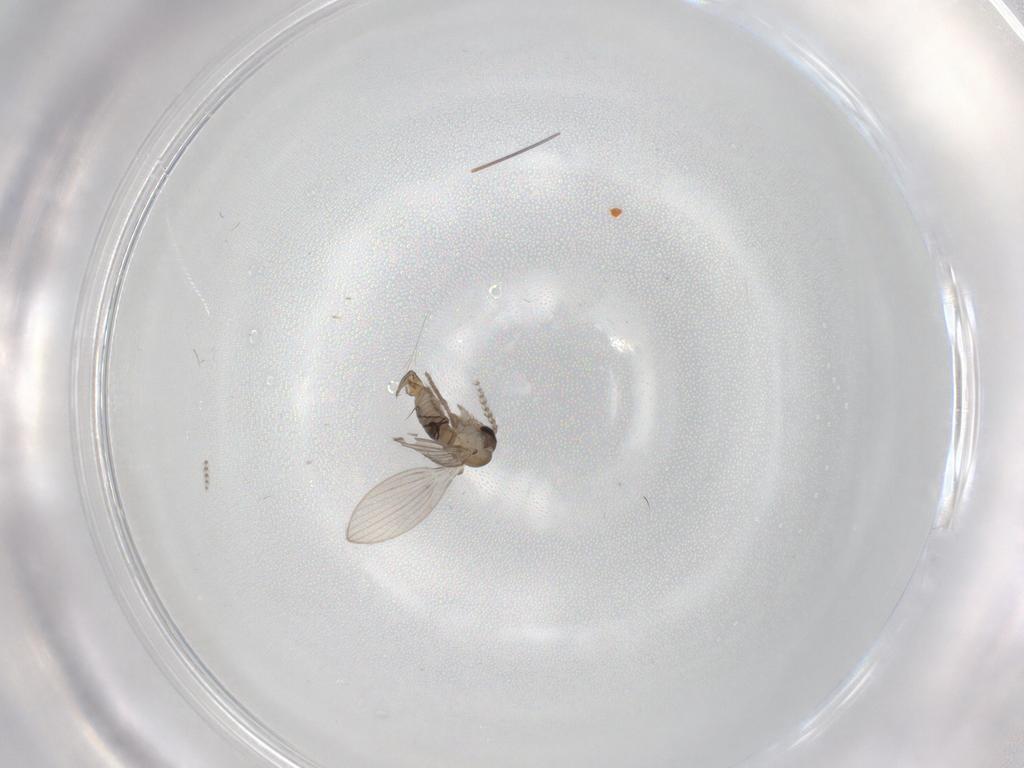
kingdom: Animalia
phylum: Arthropoda
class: Insecta
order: Diptera
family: Psychodidae
